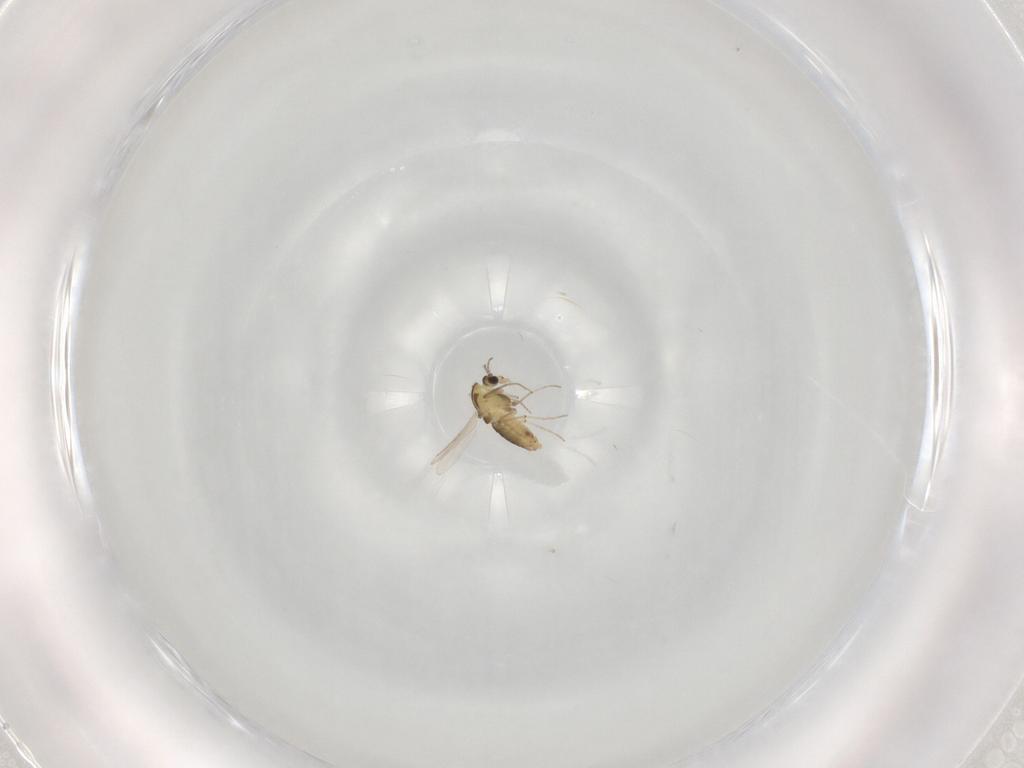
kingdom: Animalia
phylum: Arthropoda
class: Insecta
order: Diptera
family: Chironomidae
